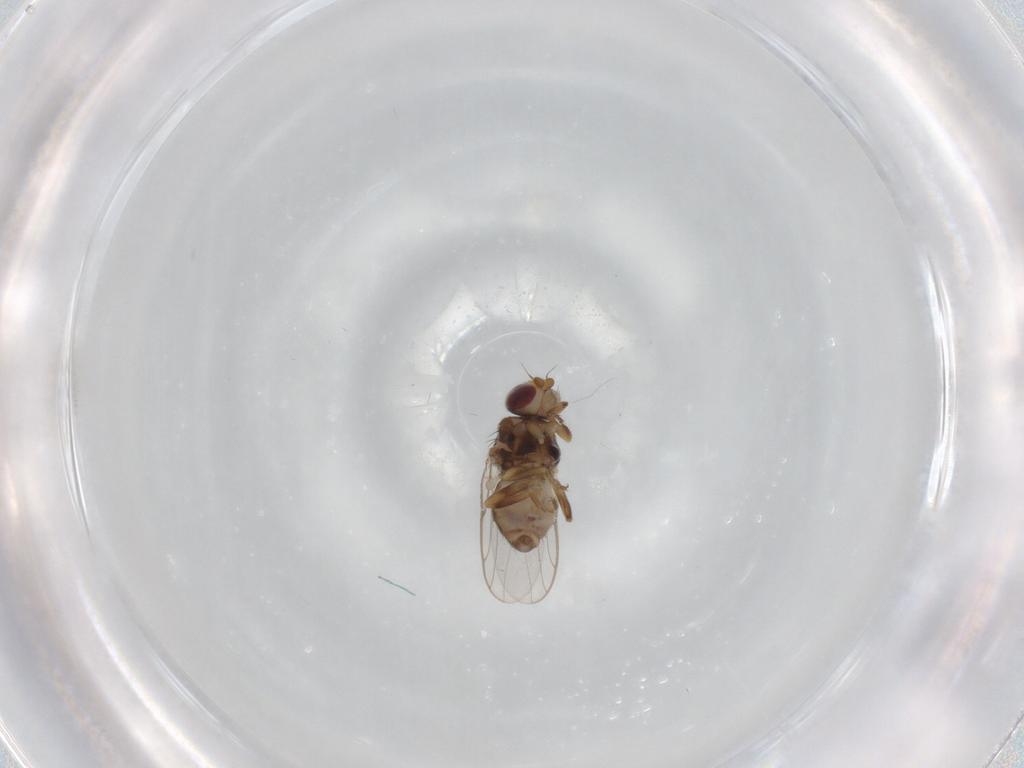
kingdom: Animalia
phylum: Arthropoda
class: Insecta
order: Diptera
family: Chloropidae
